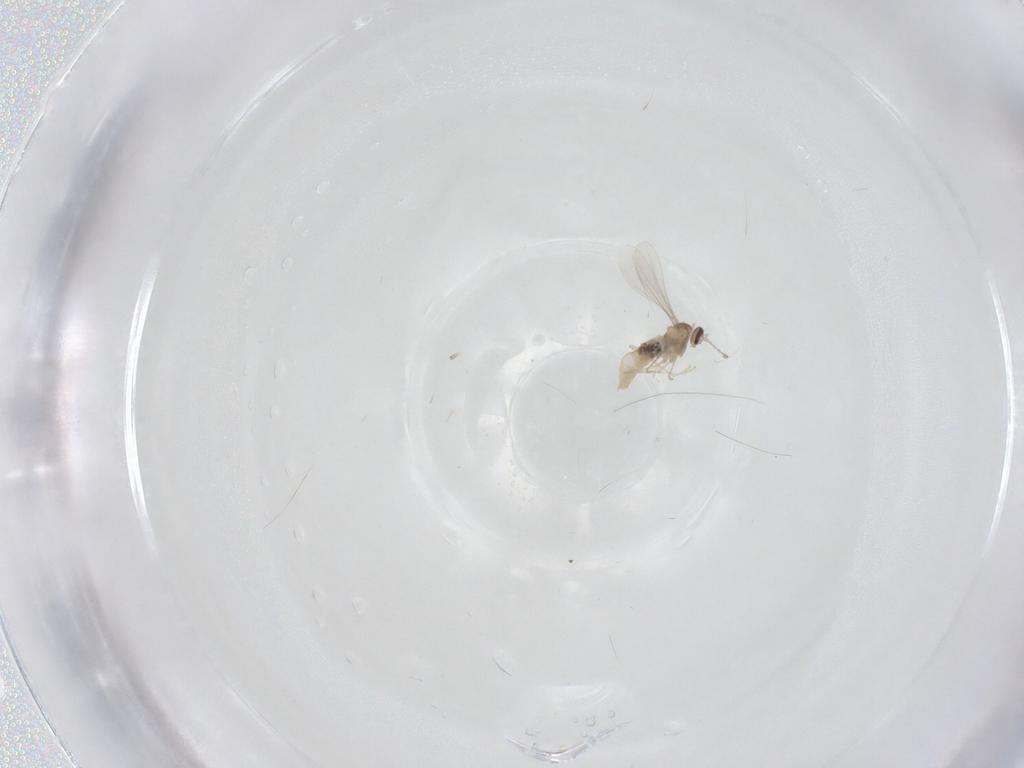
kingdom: Animalia
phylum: Arthropoda
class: Insecta
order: Diptera
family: Cecidomyiidae
